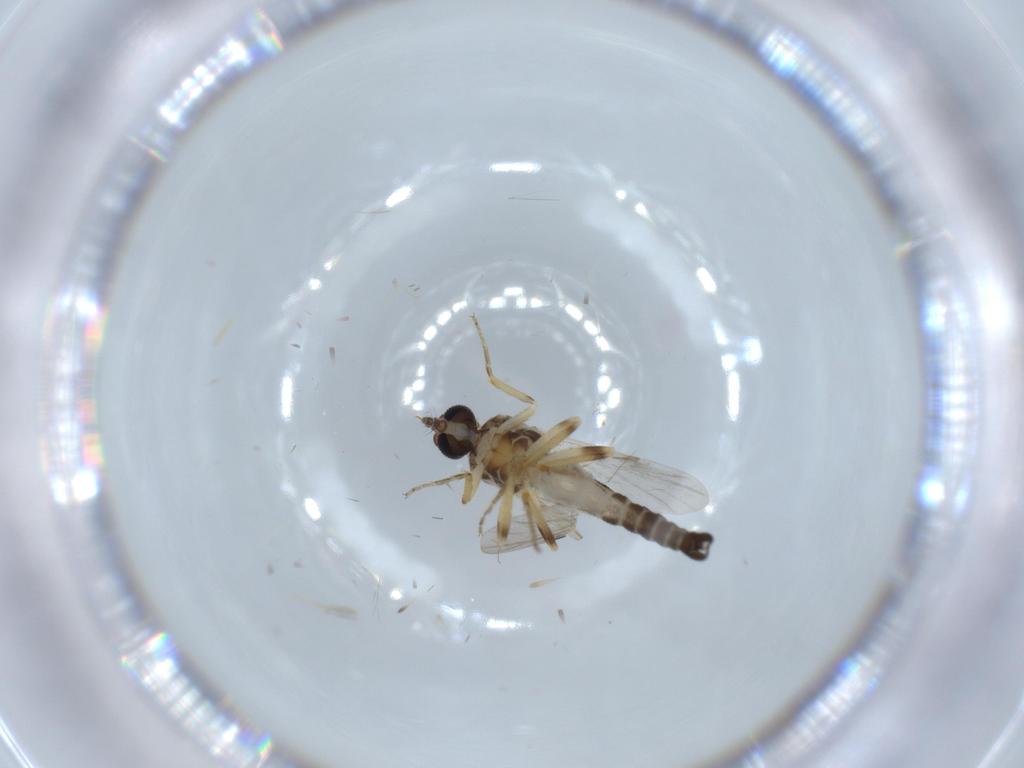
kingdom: Animalia
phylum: Arthropoda
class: Insecta
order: Diptera
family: Ceratopogonidae
